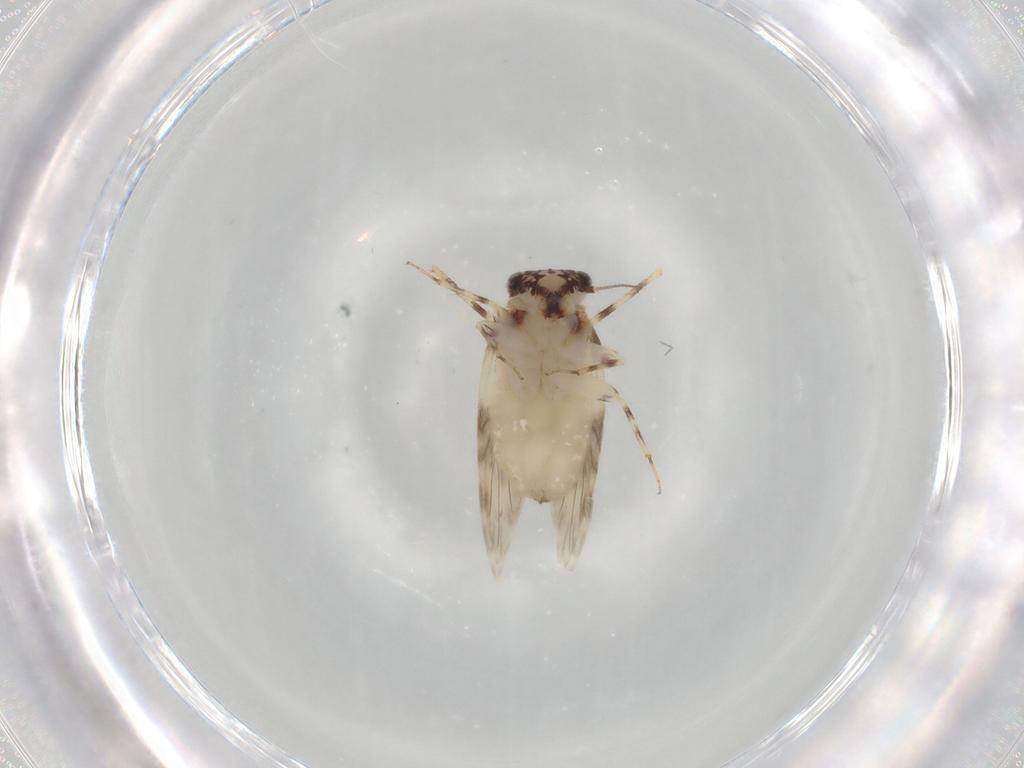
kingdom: Animalia
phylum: Arthropoda
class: Insecta
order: Psocodea
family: Lepidopsocidae
